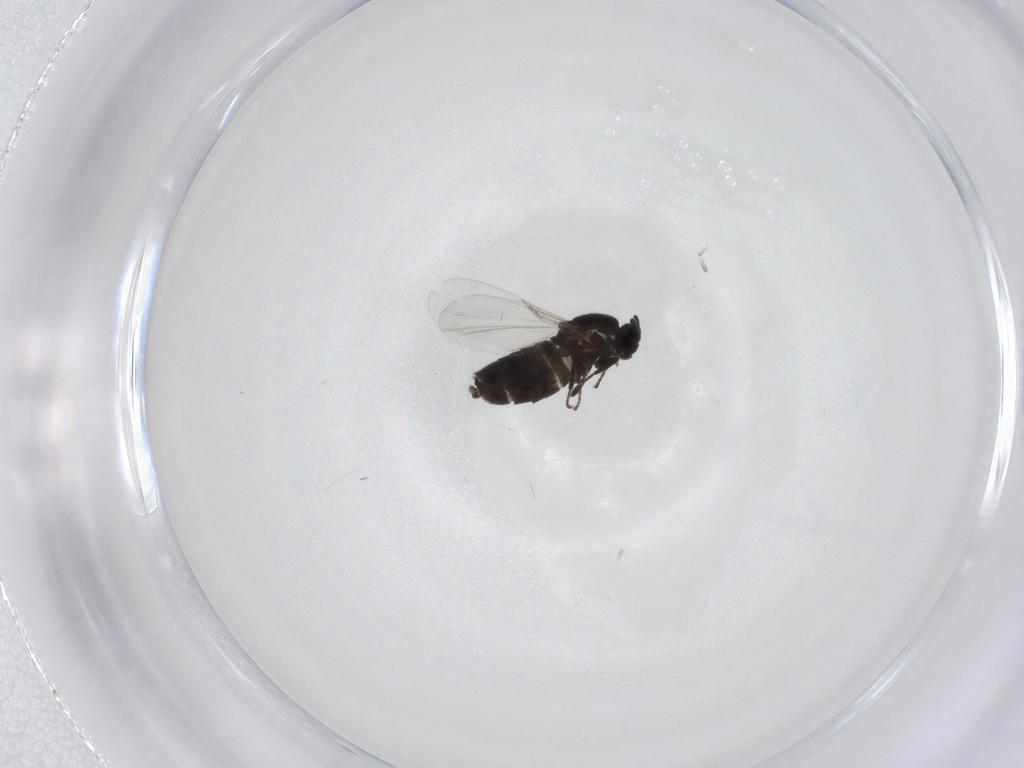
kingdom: Animalia
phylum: Arthropoda
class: Insecta
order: Diptera
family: Scatopsidae
